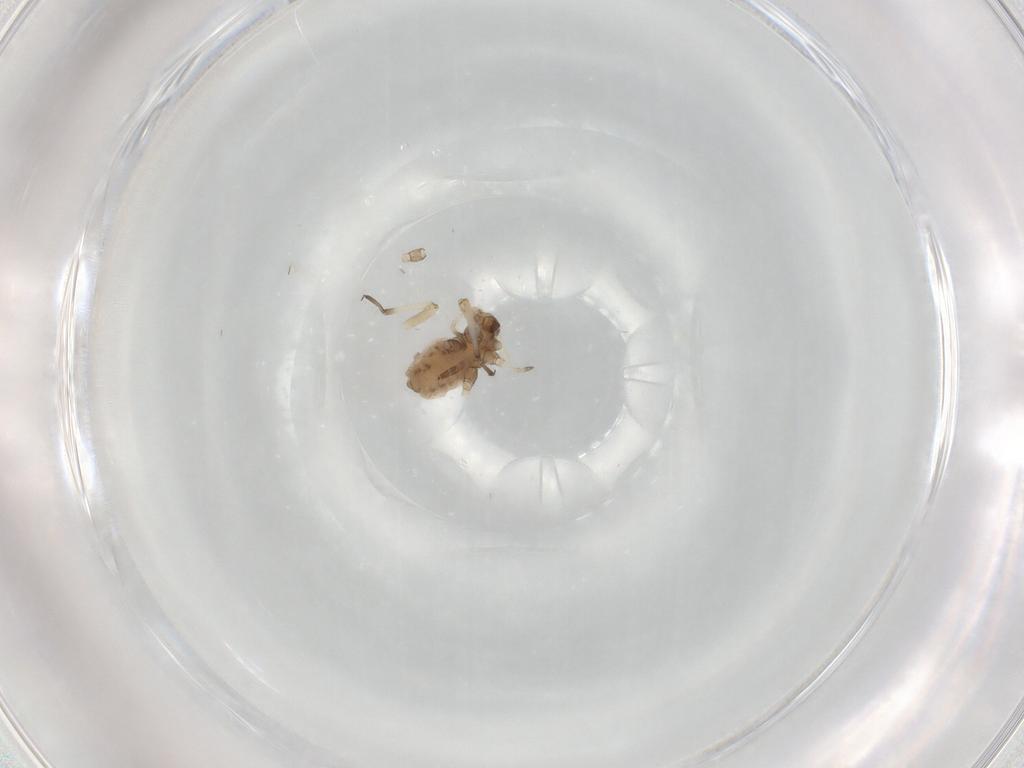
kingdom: Animalia
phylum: Arthropoda
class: Insecta
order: Hemiptera
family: Aphididae
